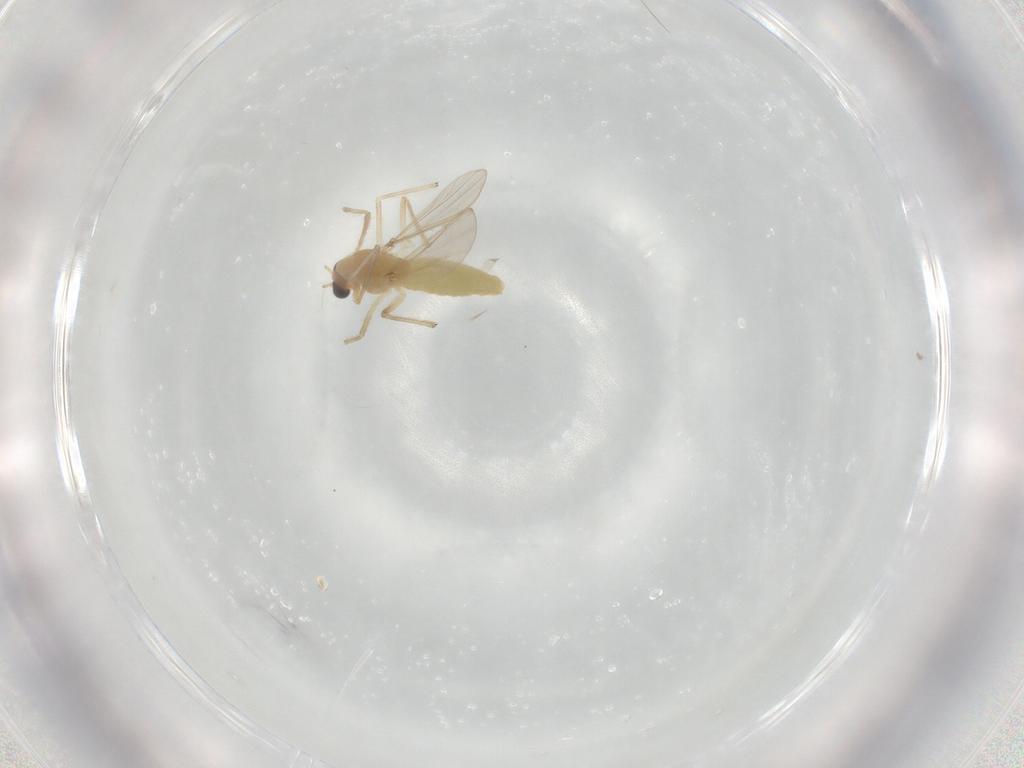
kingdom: Animalia
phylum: Arthropoda
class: Insecta
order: Diptera
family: Chironomidae
